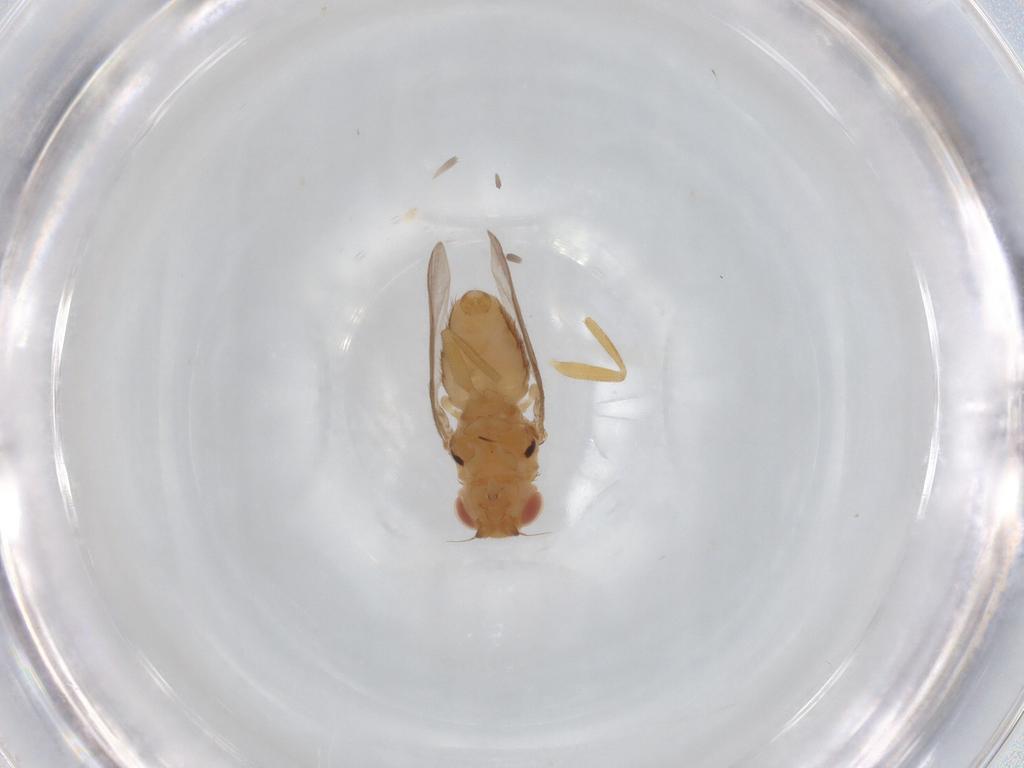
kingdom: Animalia
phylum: Arthropoda
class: Insecta
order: Diptera
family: Chloropidae
